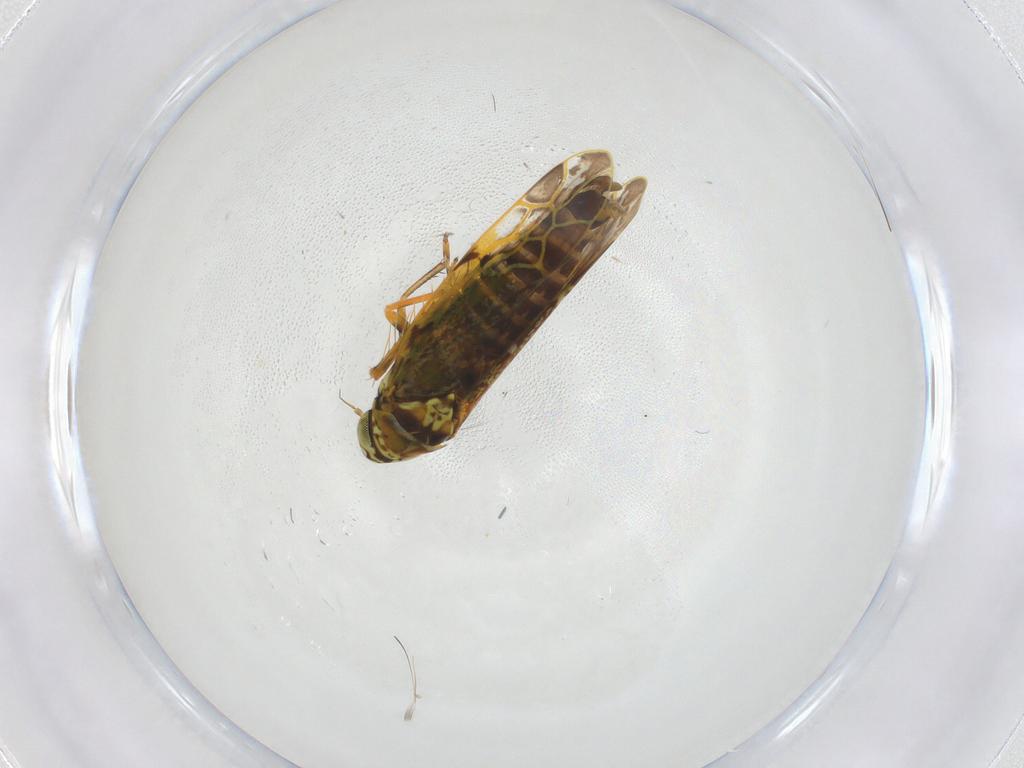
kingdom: Animalia
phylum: Arthropoda
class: Insecta
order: Hemiptera
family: Cicadellidae
